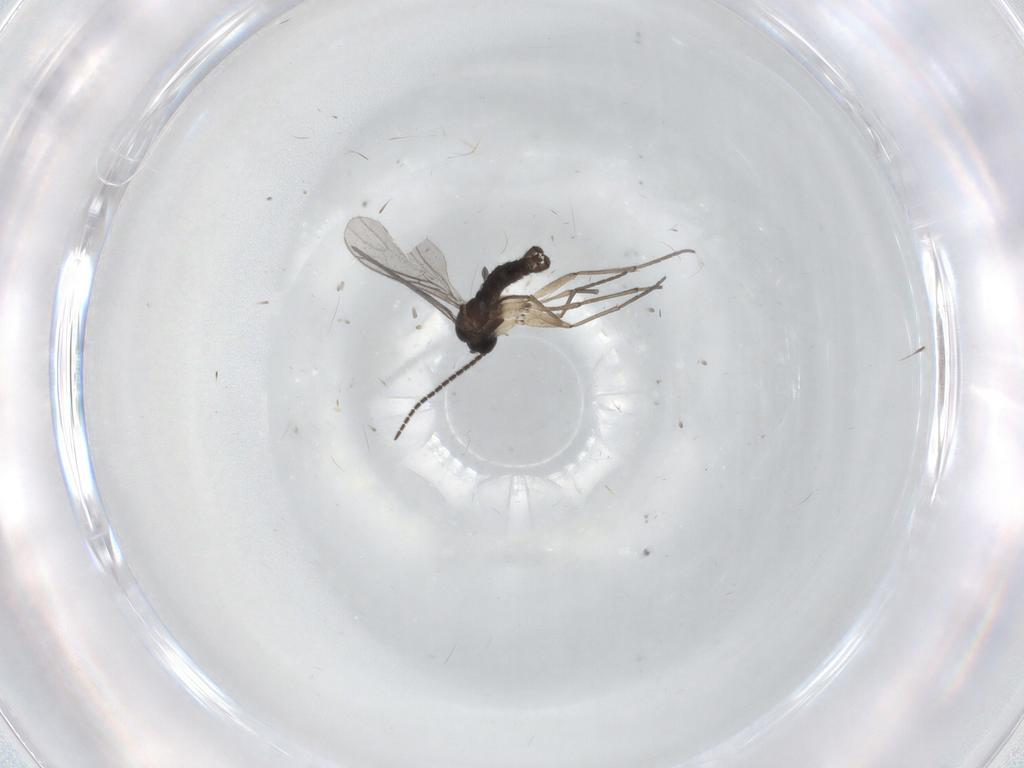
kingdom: Animalia
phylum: Arthropoda
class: Insecta
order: Diptera
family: Sciaridae
